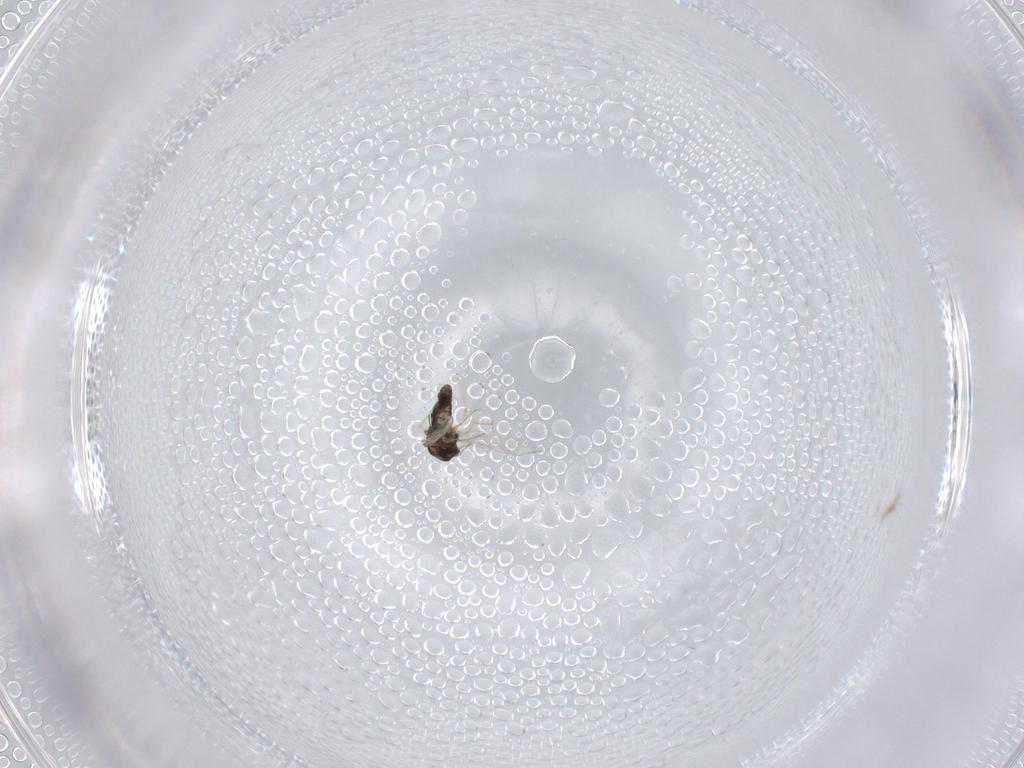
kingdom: Animalia
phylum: Arthropoda
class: Insecta
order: Diptera
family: Chironomidae
